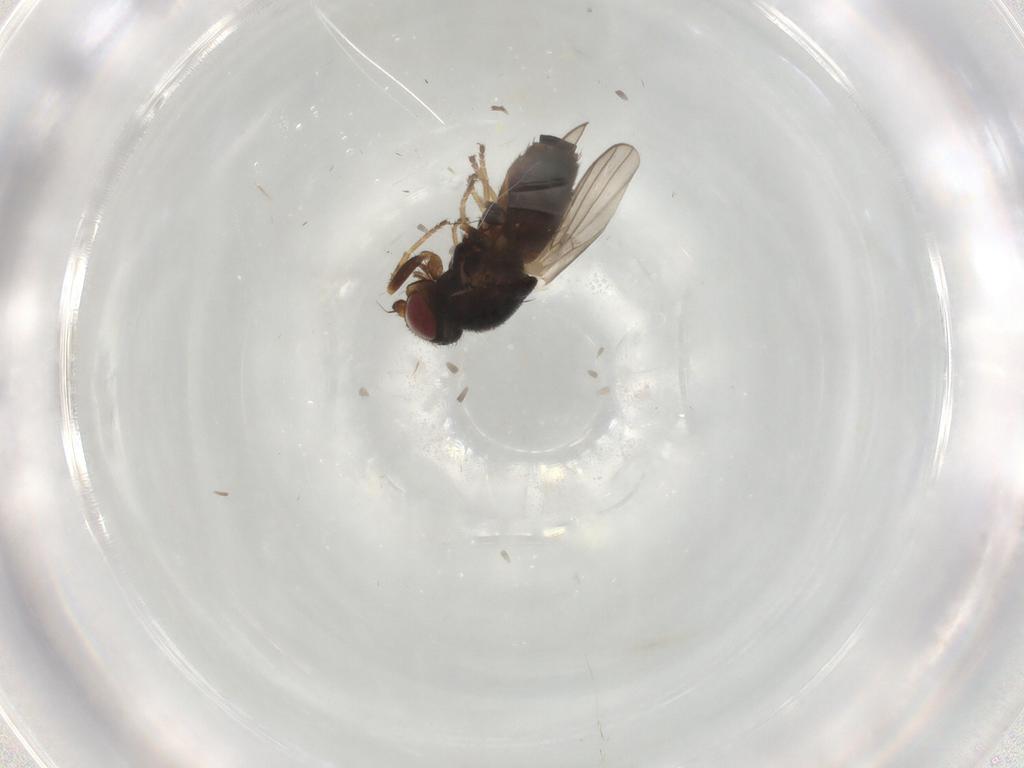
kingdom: Animalia
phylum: Arthropoda
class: Insecta
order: Diptera
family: Chloropidae
